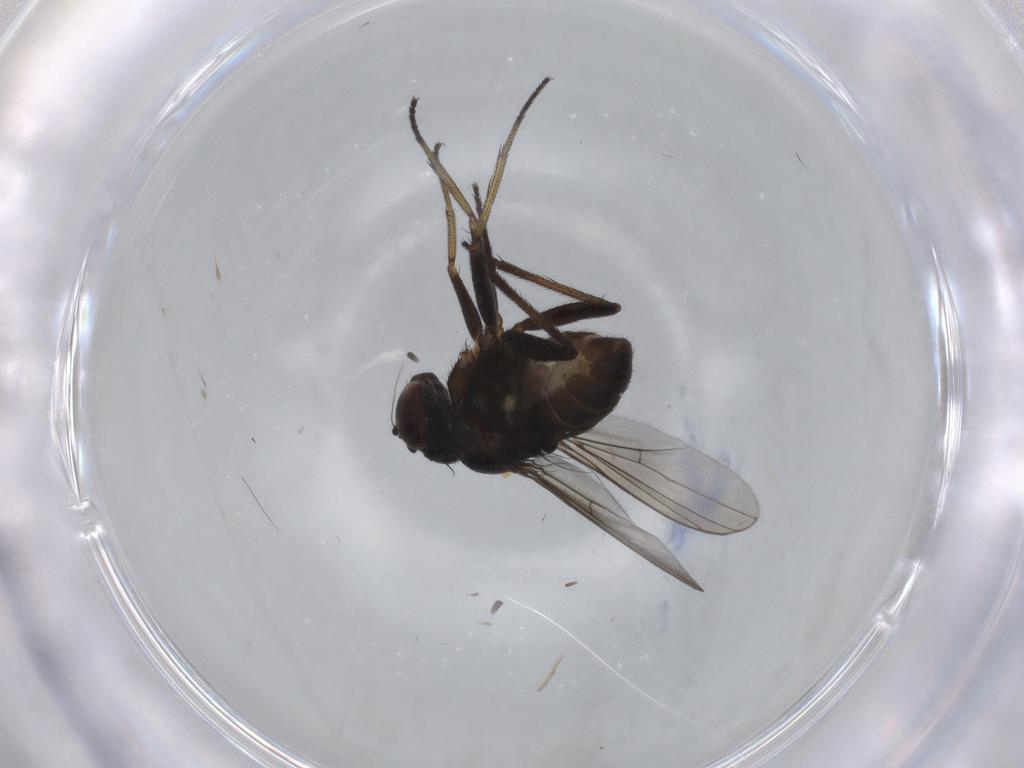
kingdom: Animalia
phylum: Arthropoda
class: Insecta
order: Diptera
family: Dolichopodidae
